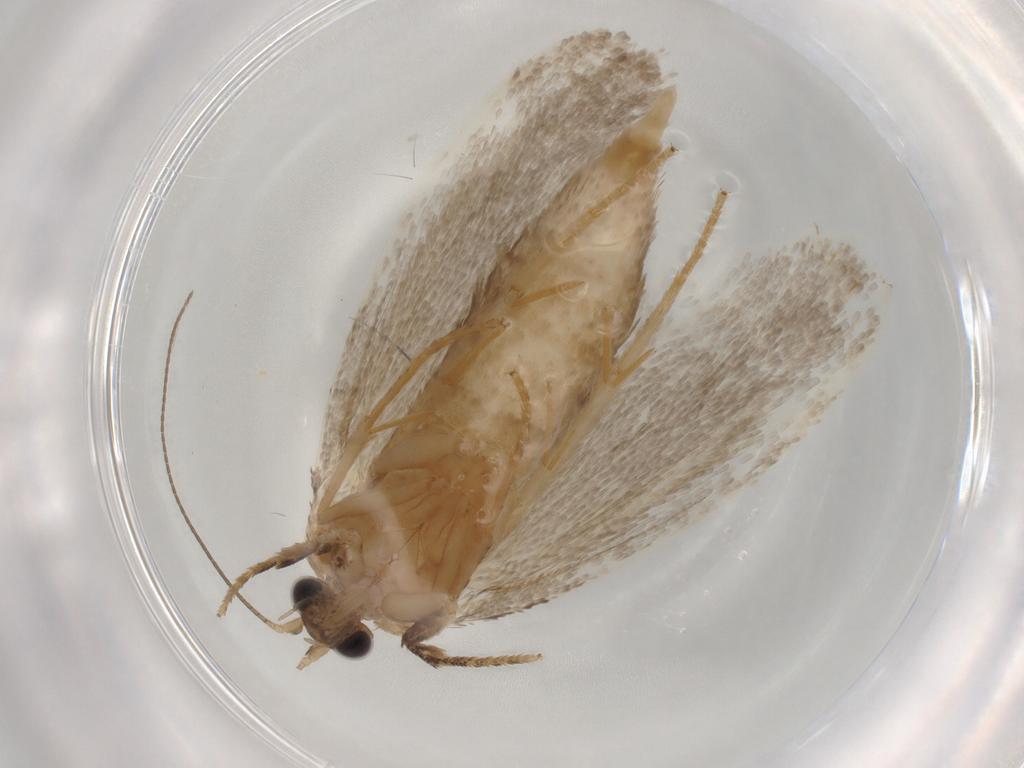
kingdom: Animalia
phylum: Arthropoda
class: Insecta
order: Lepidoptera
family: Eriocottidae
